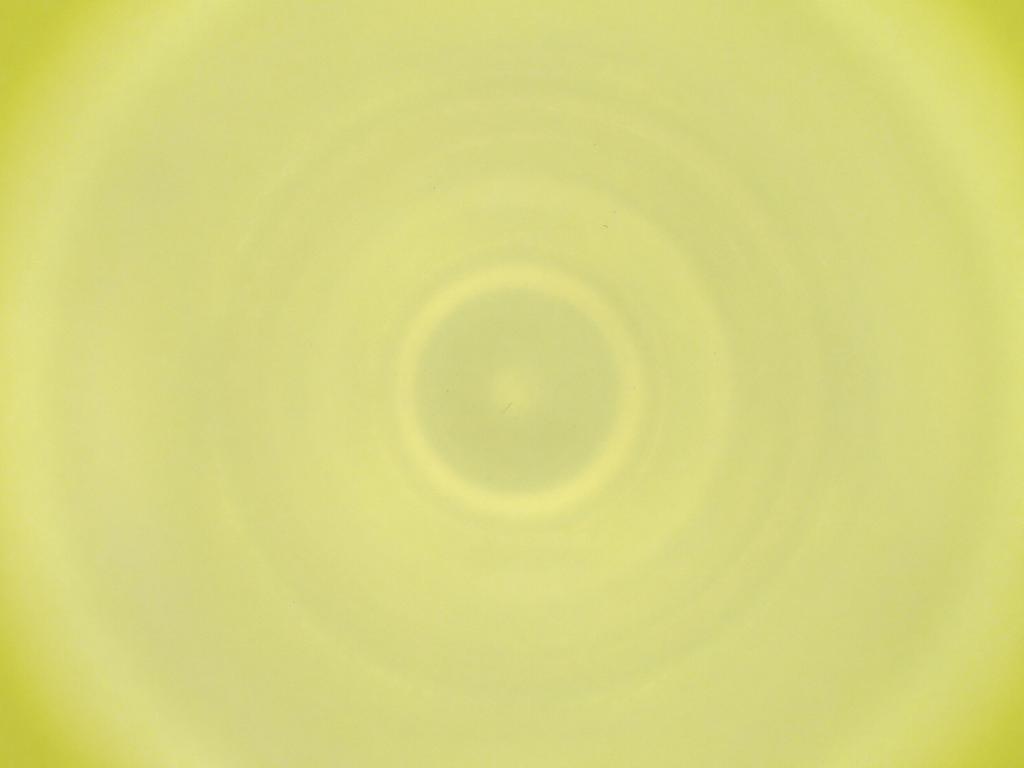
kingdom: Animalia
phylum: Arthropoda
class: Insecta
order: Diptera
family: Cecidomyiidae
